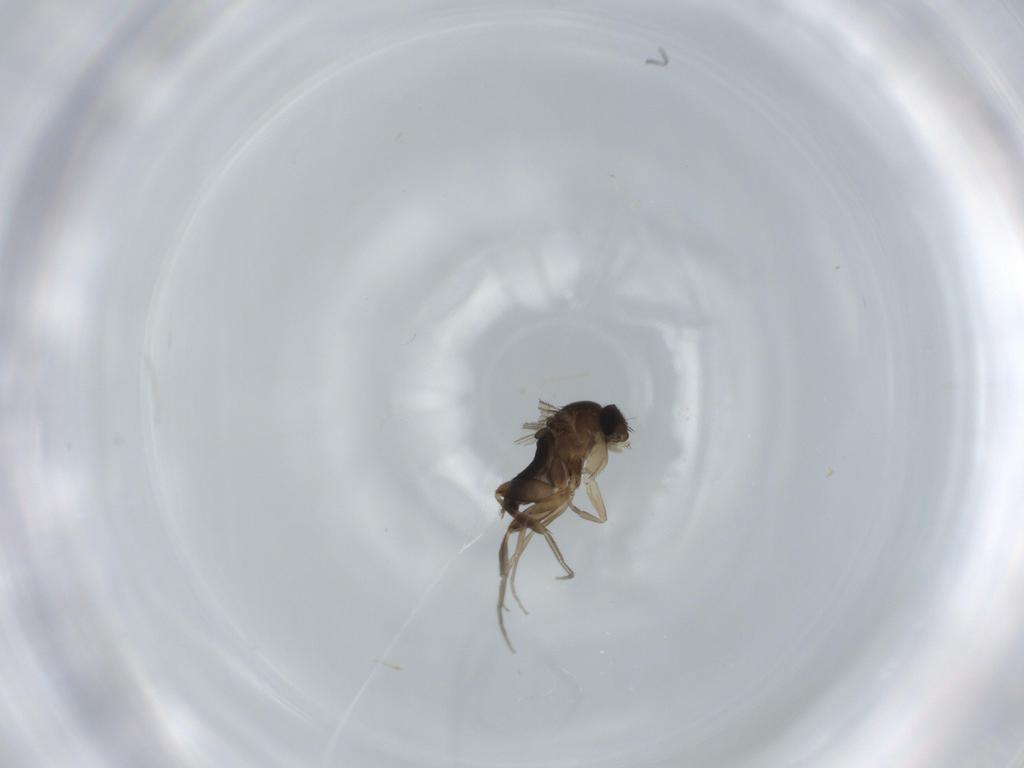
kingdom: Animalia
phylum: Arthropoda
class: Insecta
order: Diptera
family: Phoridae
